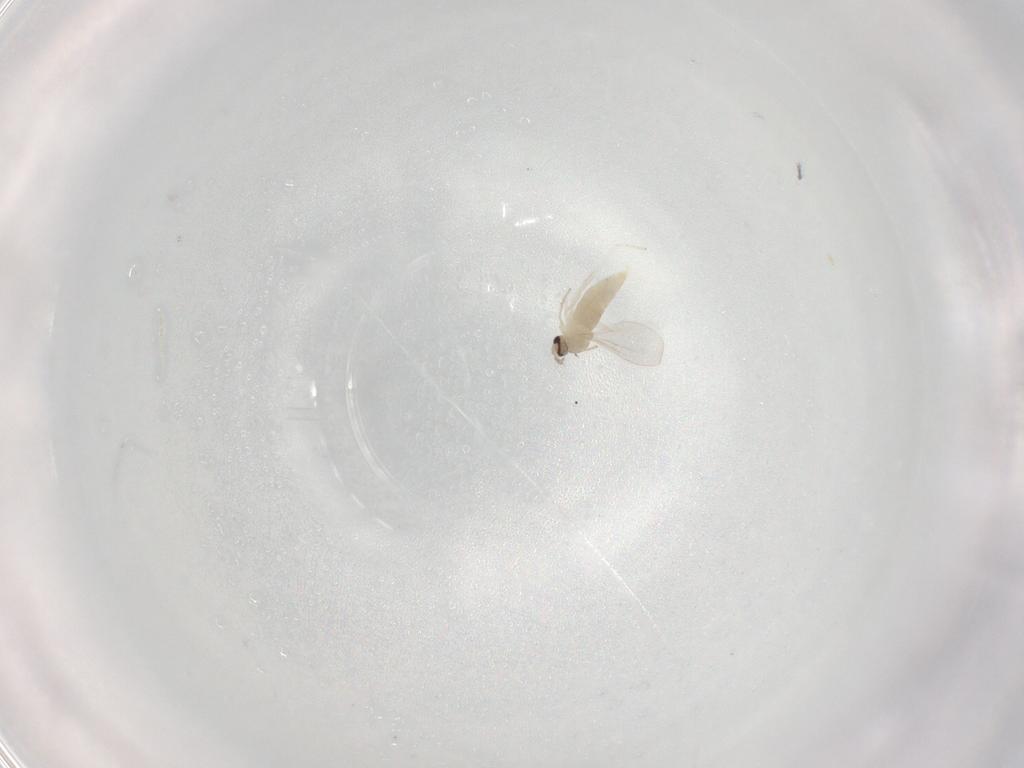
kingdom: Animalia
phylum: Arthropoda
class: Insecta
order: Diptera
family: Cecidomyiidae
